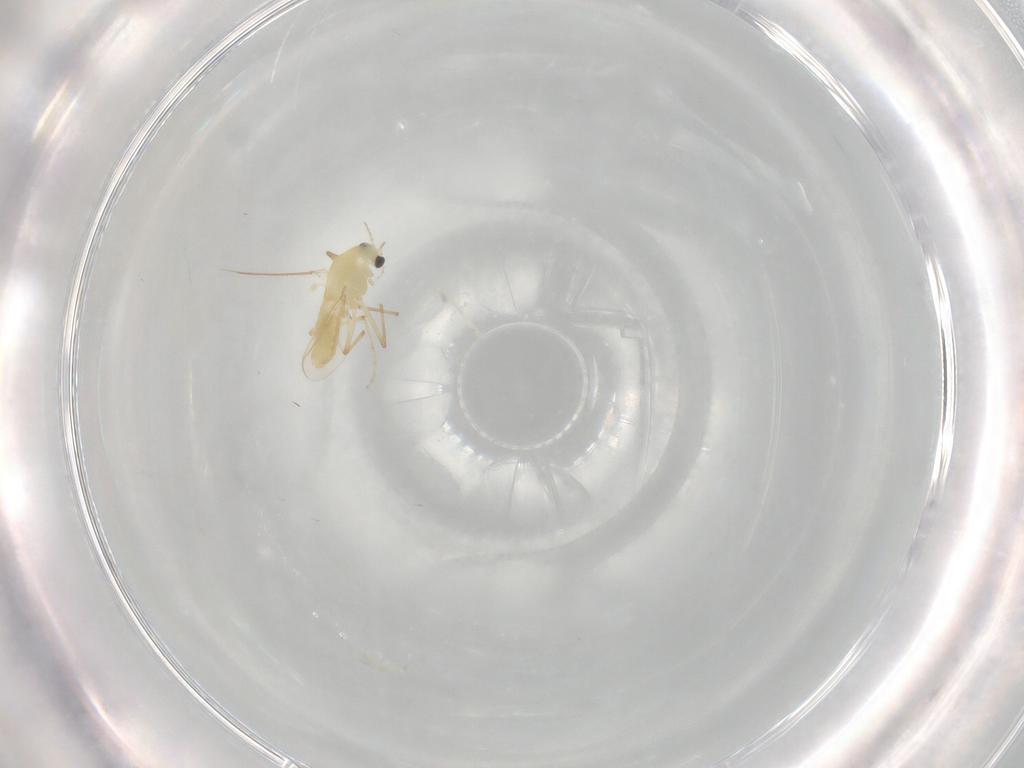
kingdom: Animalia
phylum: Arthropoda
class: Insecta
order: Diptera
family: Chironomidae
